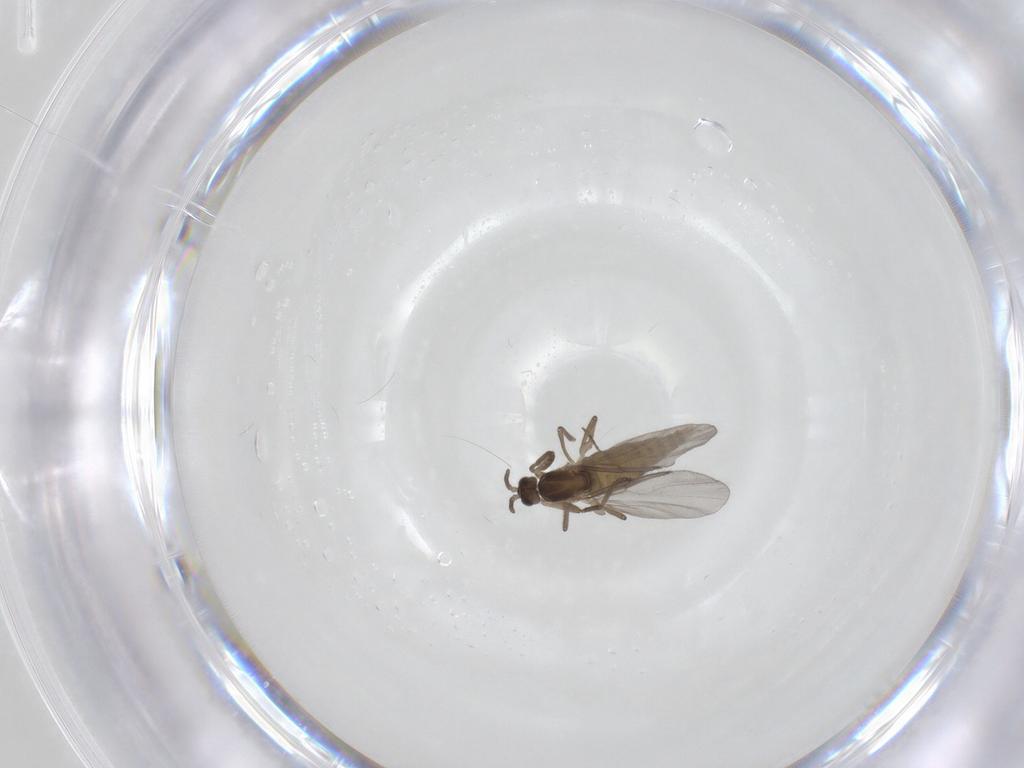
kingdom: Animalia
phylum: Arthropoda
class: Insecta
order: Diptera
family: Cecidomyiidae
